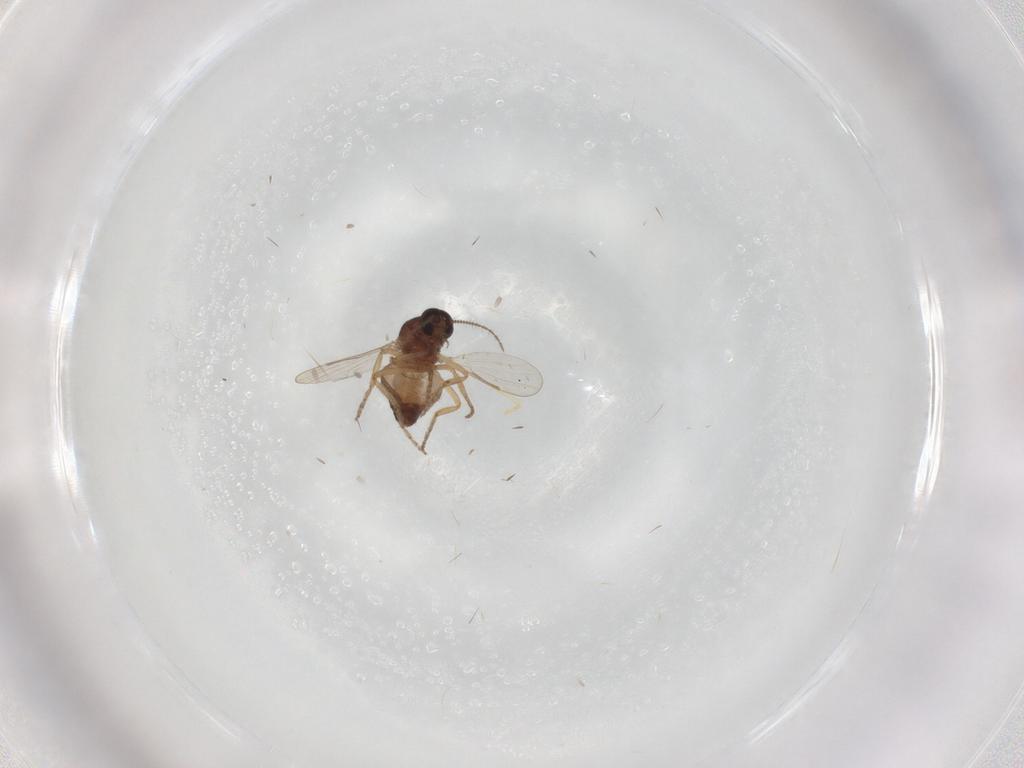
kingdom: Animalia
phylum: Arthropoda
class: Insecta
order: Diptera
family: Ceratopogonidae
